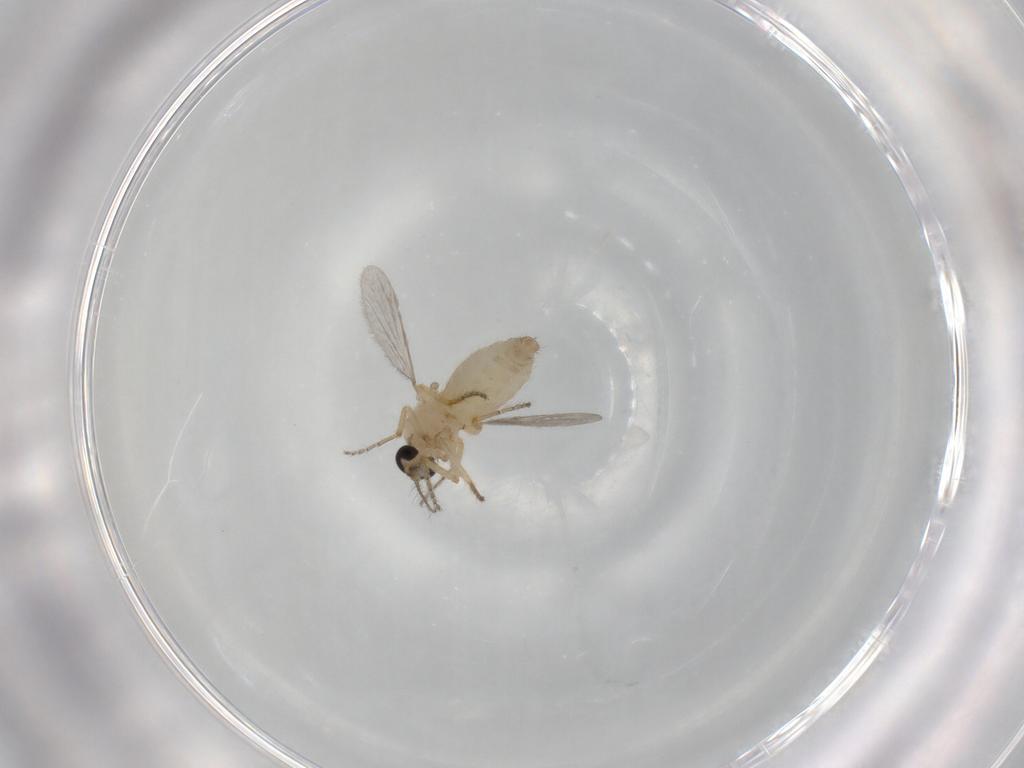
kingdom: Animalia
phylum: Arthropoda
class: Insecta
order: Diptera
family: Ceratopogonidae
